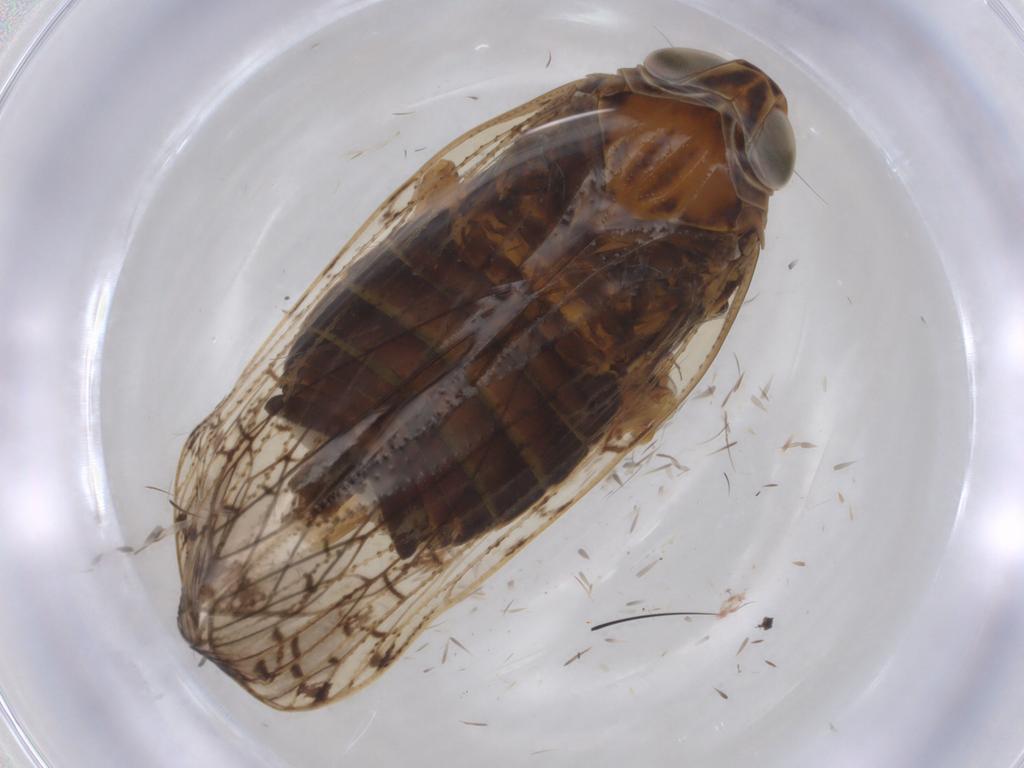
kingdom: Animalia
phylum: Arthropoda
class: Insecta
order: Hemiptera
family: Cixiidae
